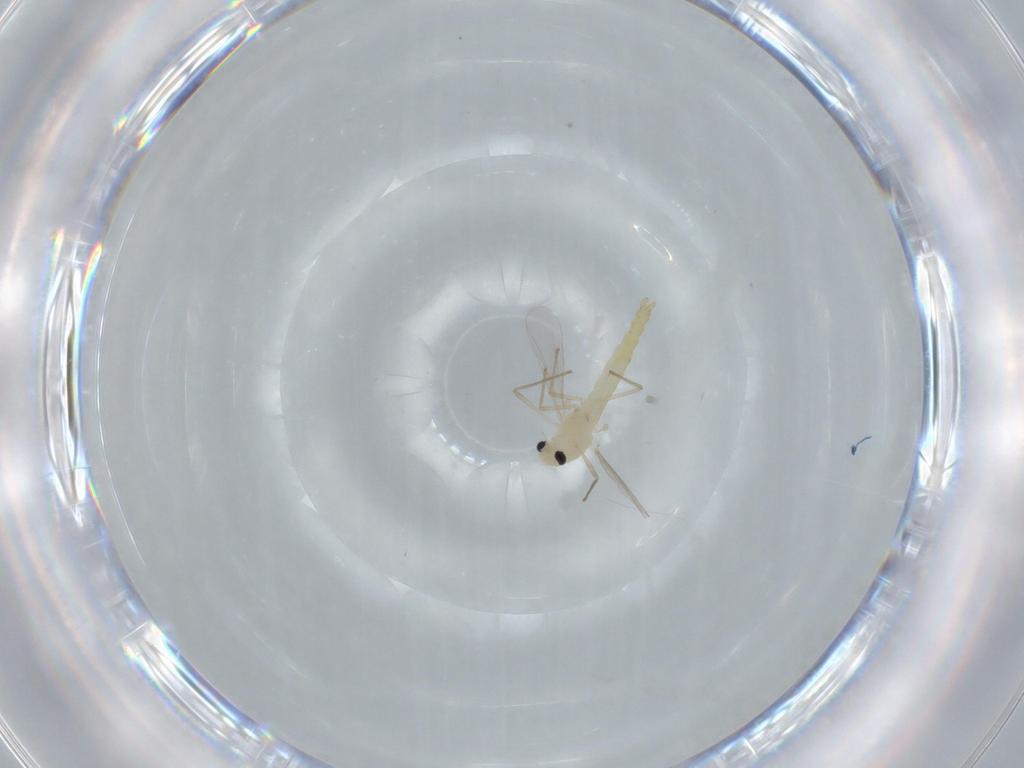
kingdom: Animalia
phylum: Arthropoda
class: Insecta
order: Diptera
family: Chironomidae
